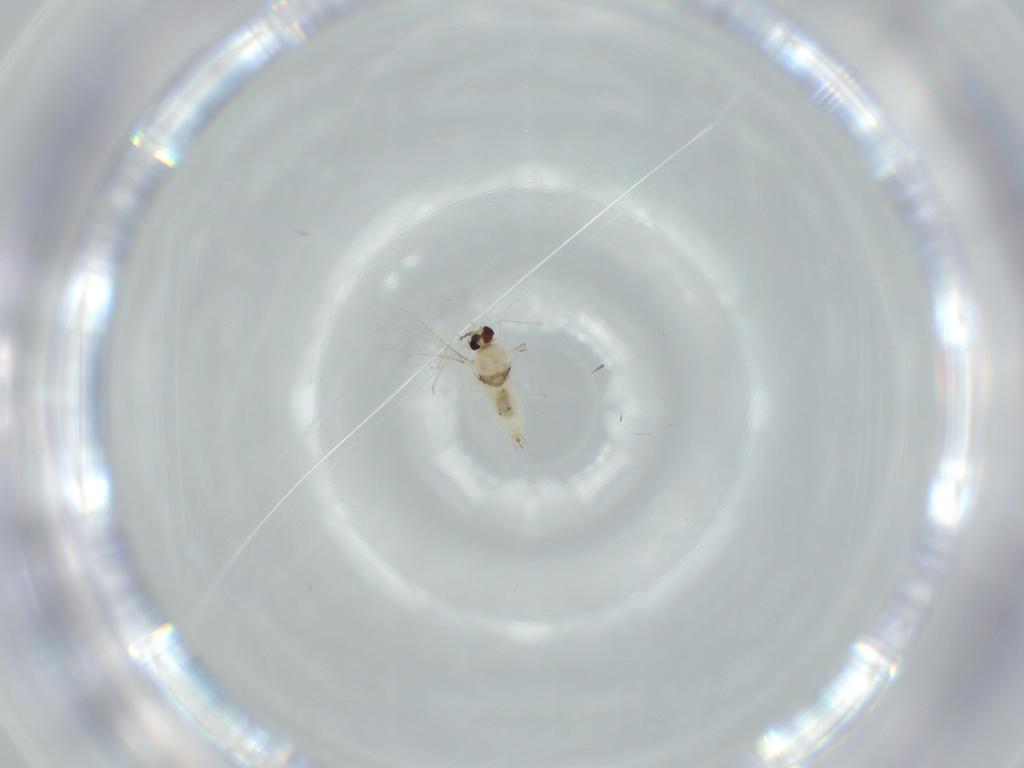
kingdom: Animalia
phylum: Arthropoda
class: Insecta
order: Diptera
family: Cecidomyiidae
